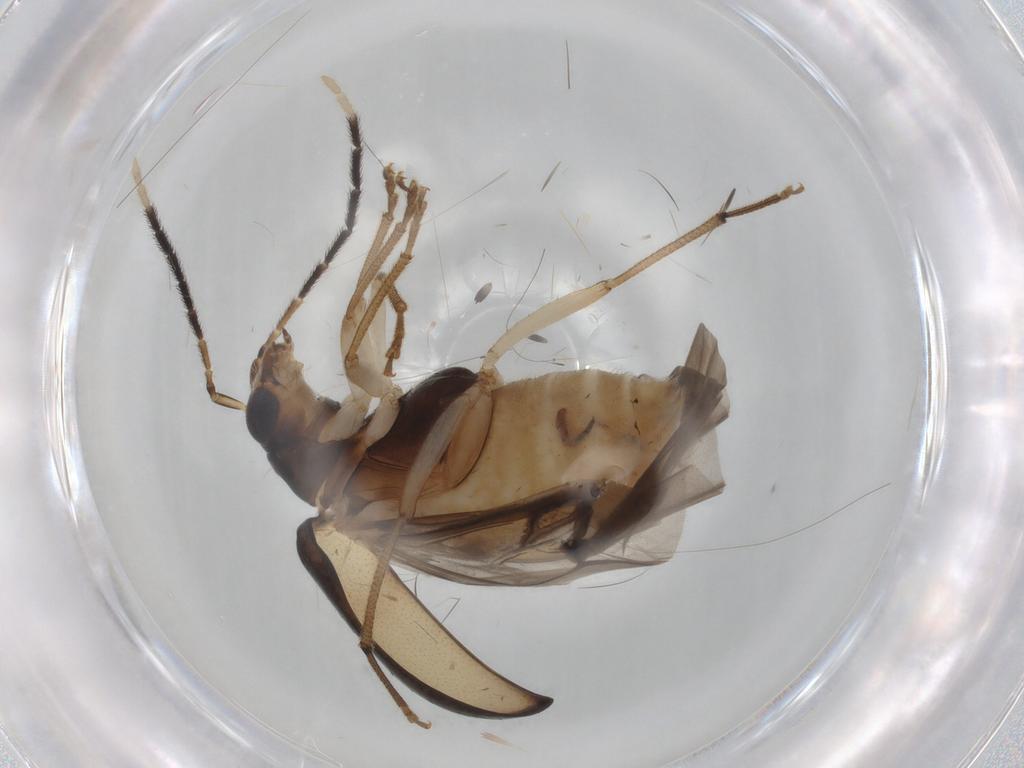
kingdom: Animalia
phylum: Arthropoda
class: Insecta
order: Coleoptera
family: Chrysomelidae
